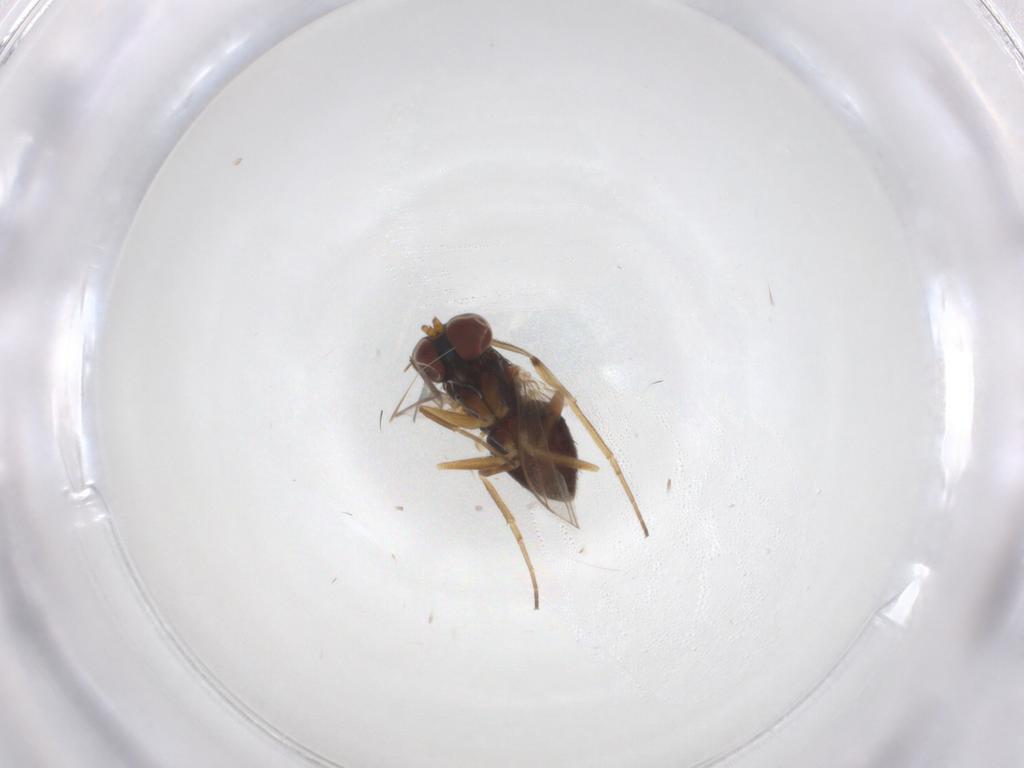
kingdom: Animalia
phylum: Arthropoda
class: Insecta
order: Diptera
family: Dolichopodidae
